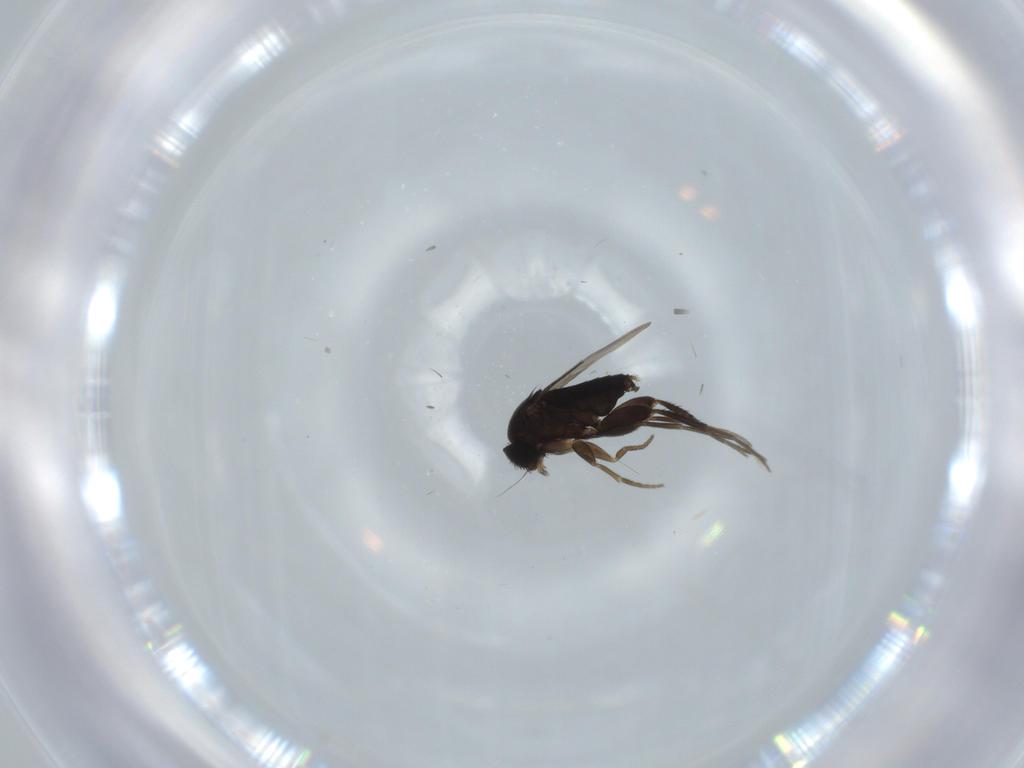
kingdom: Animalia
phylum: Arthropoda
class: Insecta
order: Diptera
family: Phoridae
